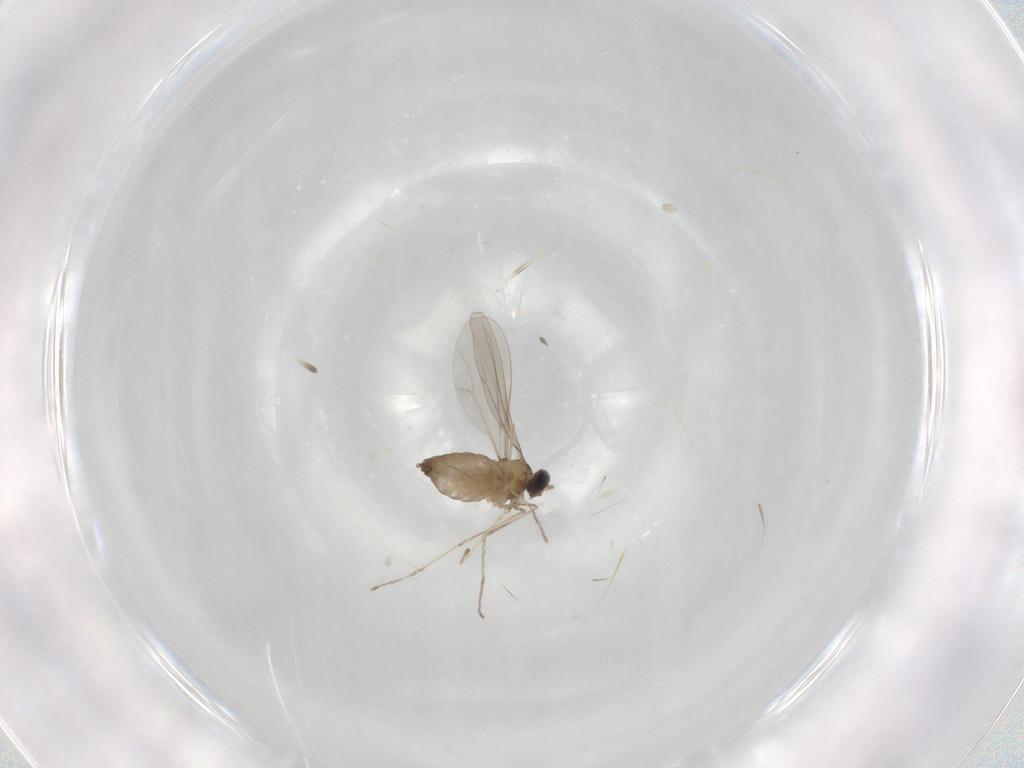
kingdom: Animalia
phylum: Arthropoda
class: Insecta
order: Diptera
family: Cecidomyiidae
